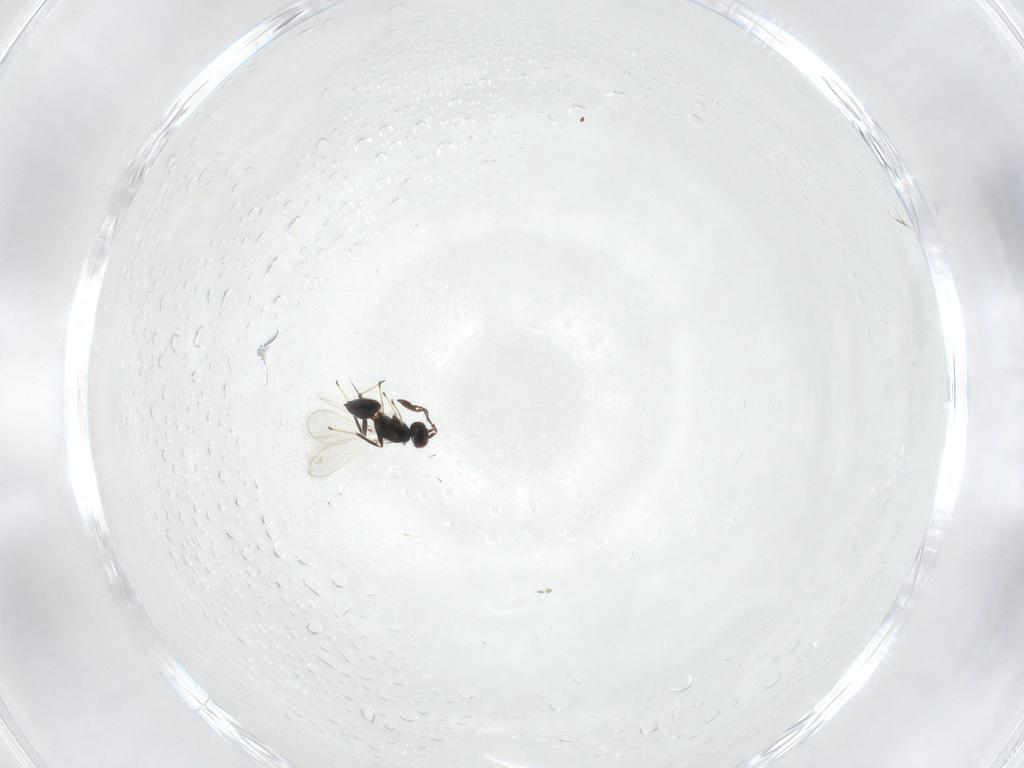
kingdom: Animalia
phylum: Arthropoda
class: Insecta
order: Hymenoptera
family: Mymaridae
